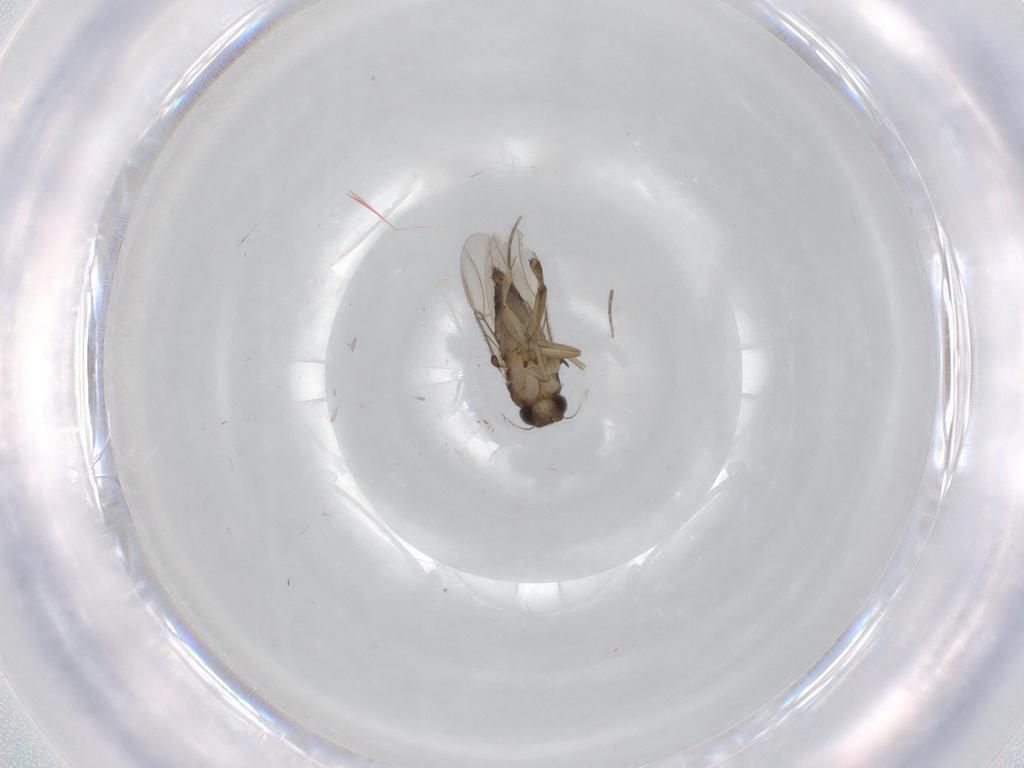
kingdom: Animalia
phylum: Arthropoda
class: Insecta
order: Diptera
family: Phoridae
